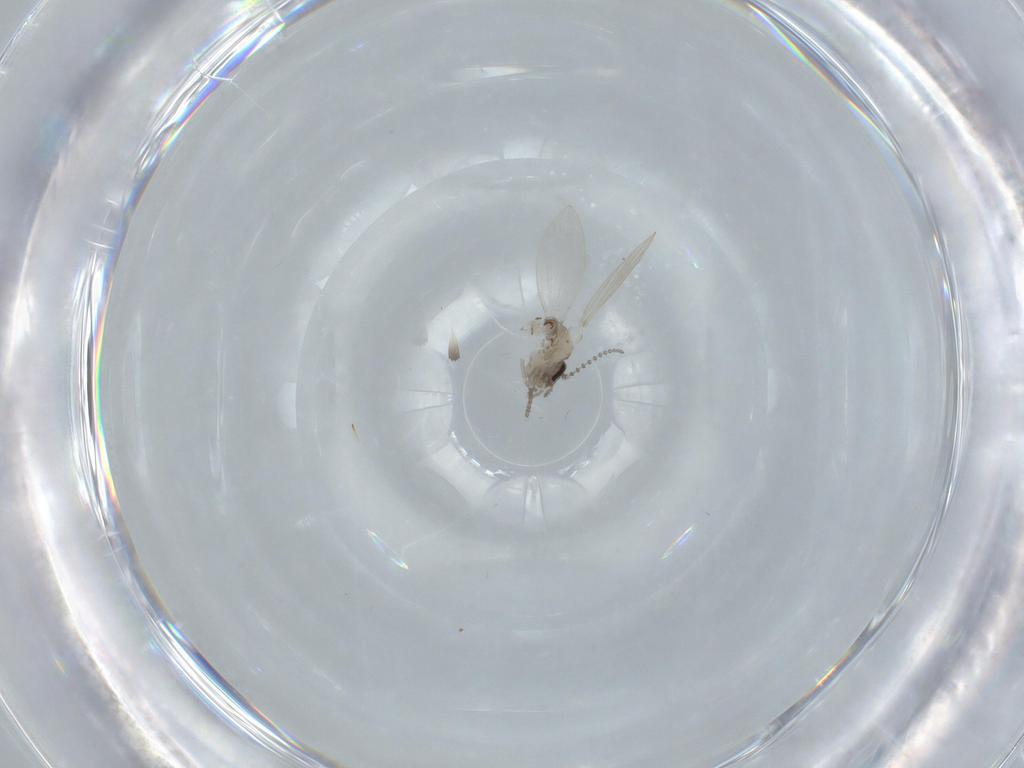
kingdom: Animalia
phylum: Arthropoda
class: Insecta
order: Diptera
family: Psychodidae
